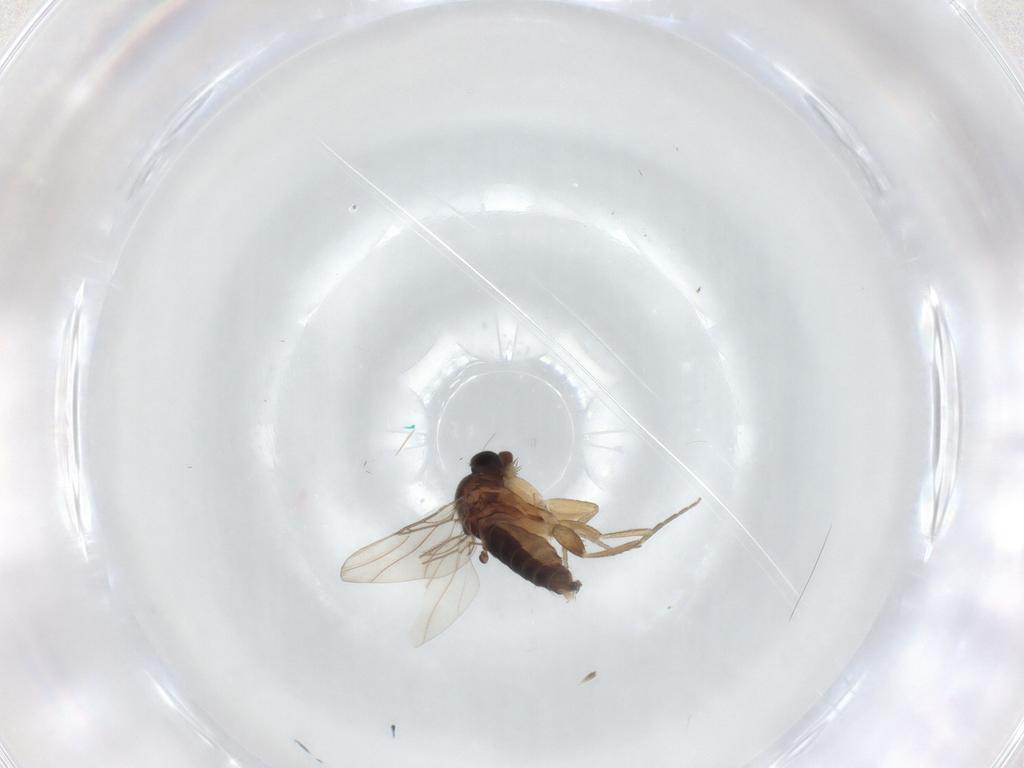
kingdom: Animalia
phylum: Arthropoda
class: Insecta
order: Diptera
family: Phoridae
